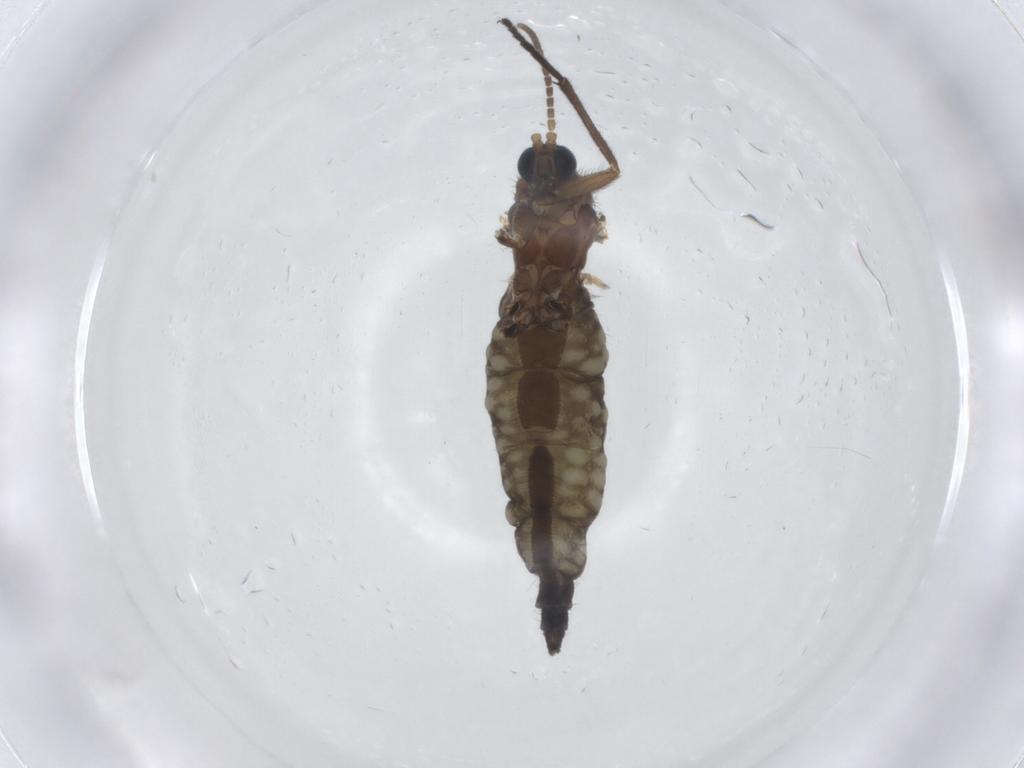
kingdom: Animalia
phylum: Arthropoda
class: Insecta
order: Diptera
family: Sciaridae
